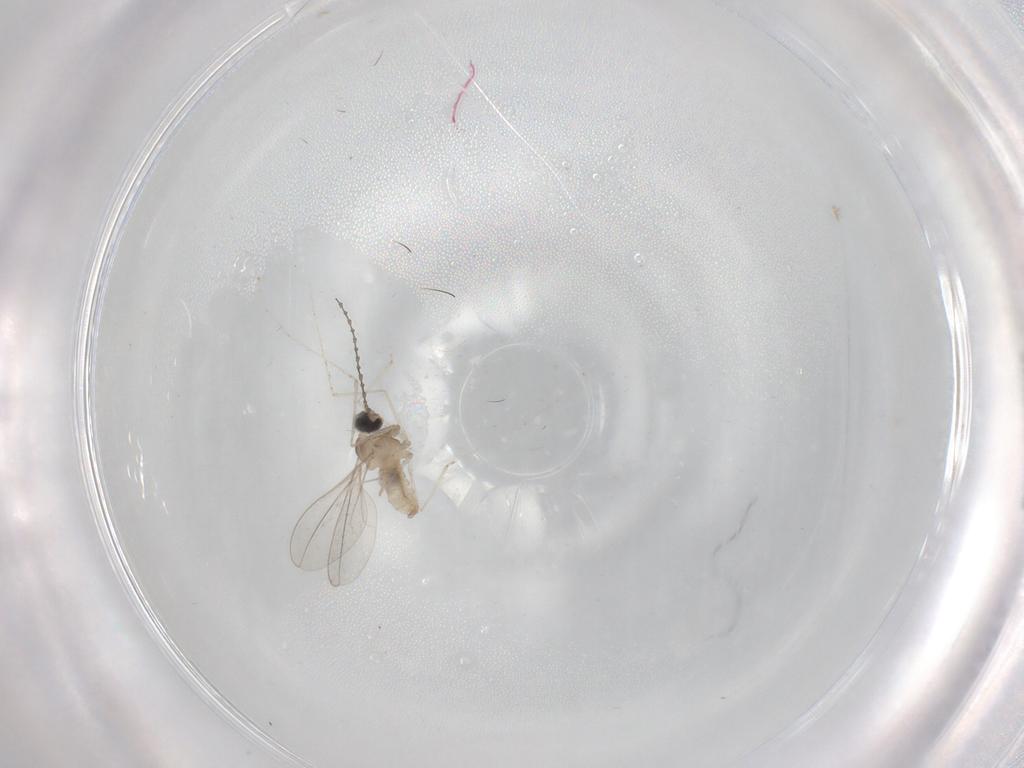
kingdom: Animalia
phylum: Arthropoda
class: Insecta
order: Diptera
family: Cecidomyiidae
